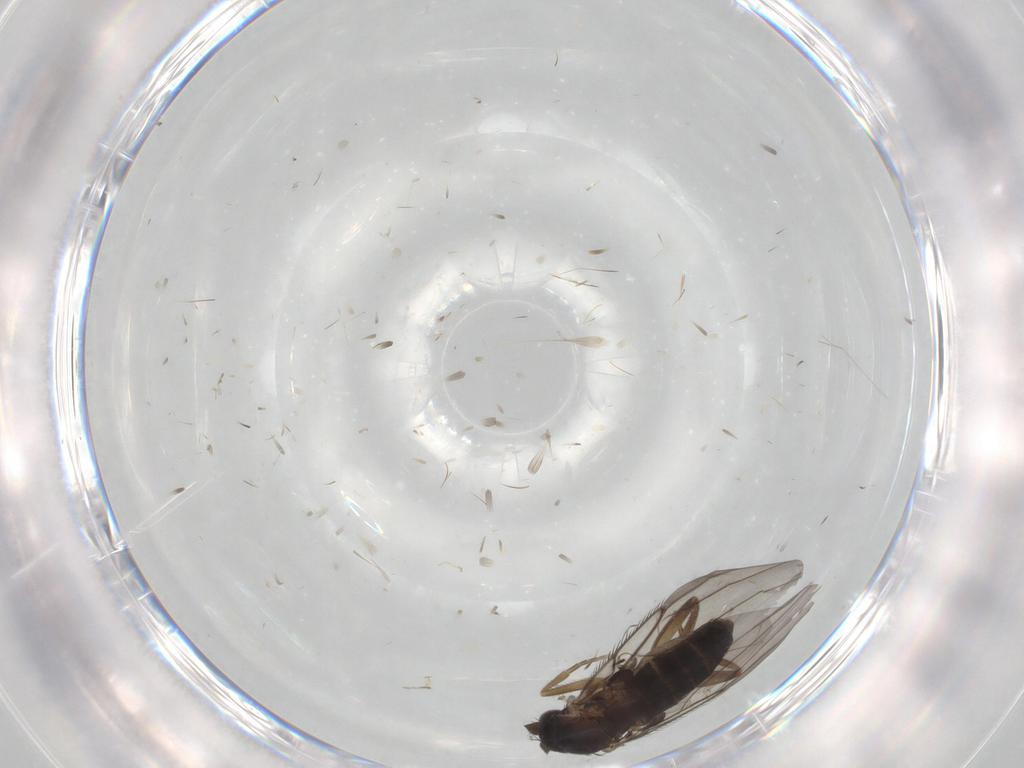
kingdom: Animalia
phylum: Arthropoda
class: Insecta
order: Diptera
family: Phoridae
